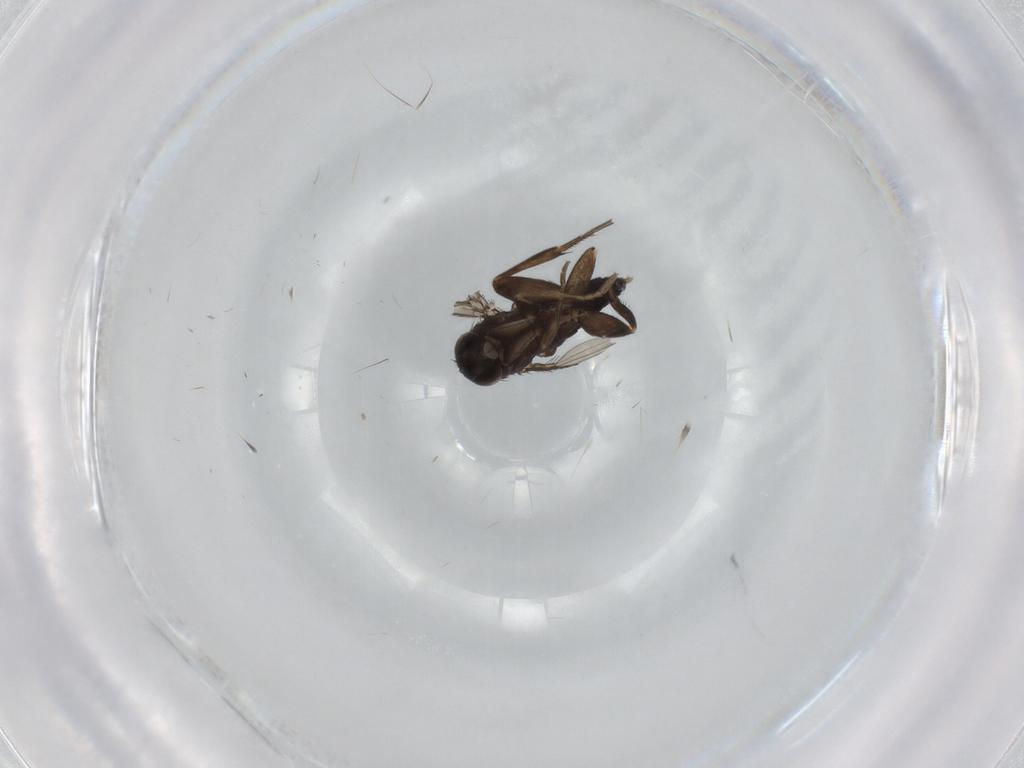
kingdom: Animalia
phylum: Arthropoda
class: Insecta
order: Diptera
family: Phoridae
